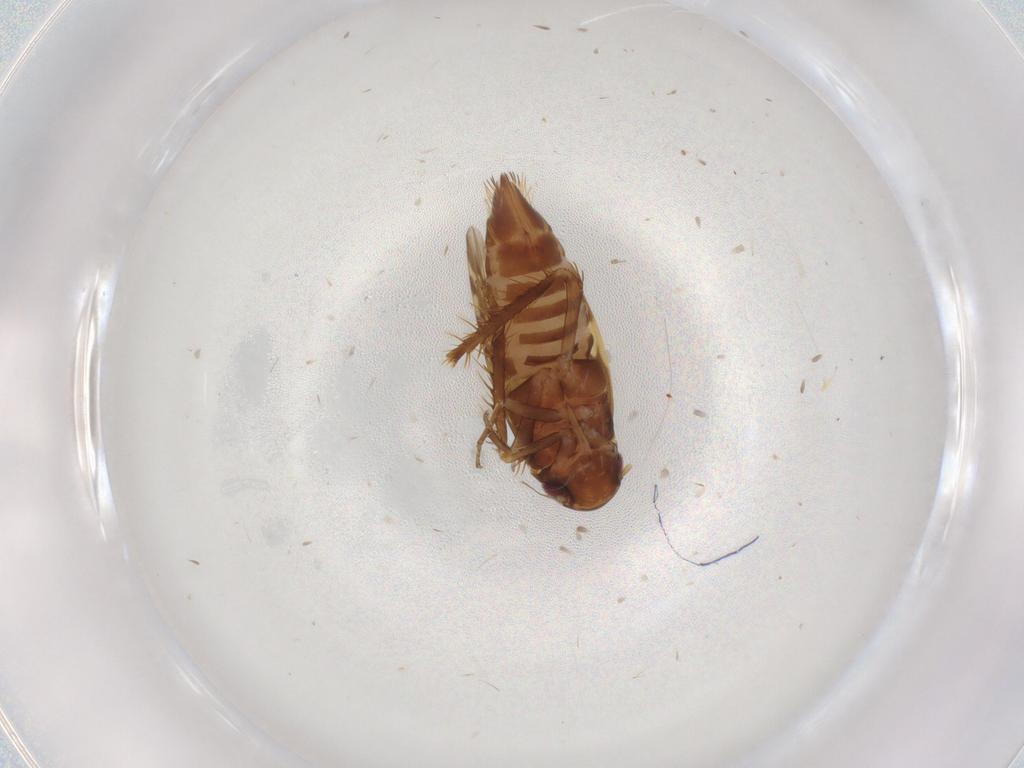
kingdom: Animalia
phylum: Arthropoda
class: Insecta
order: Hemiptera
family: Cicadellidae
